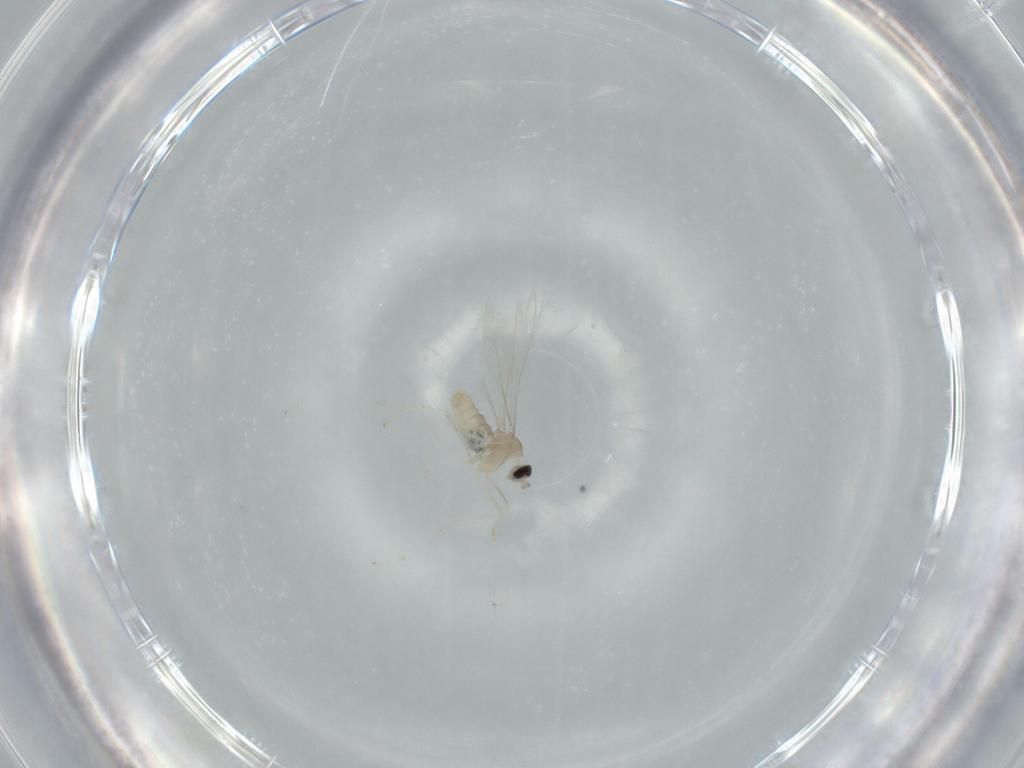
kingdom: Animalia
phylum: Arthropoda
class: Insecta
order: Diptera
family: Cecidomyiidae
